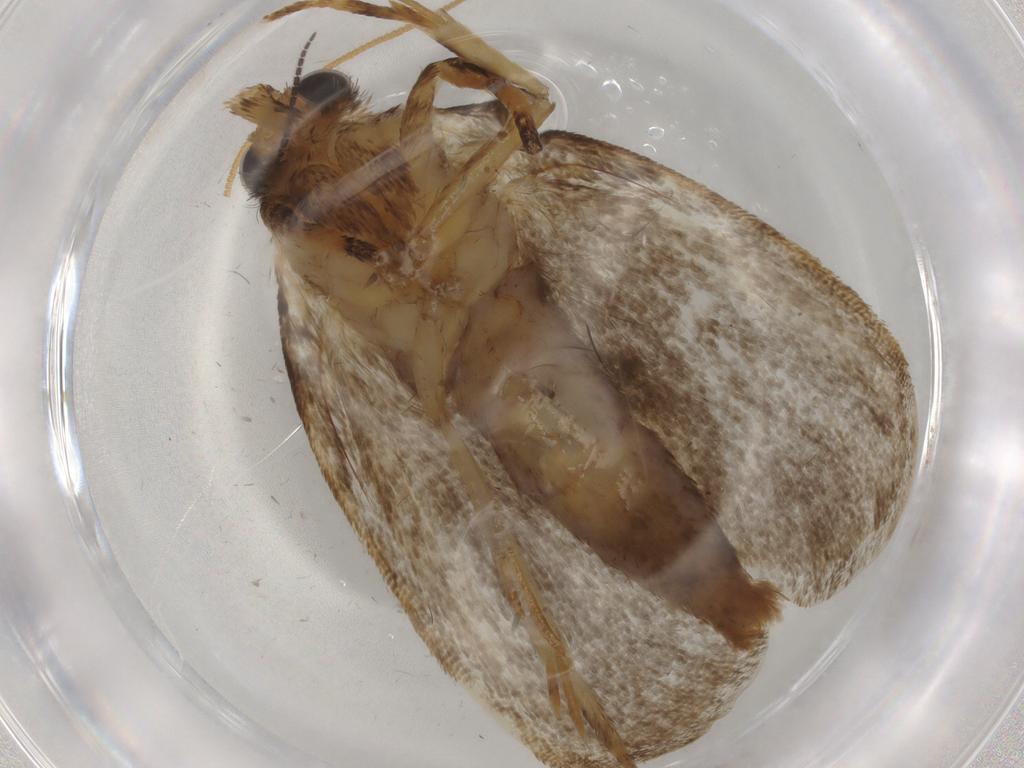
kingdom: Animalia
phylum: Arthropoda
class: Insecta
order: Lepidoptera
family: Tineidae
